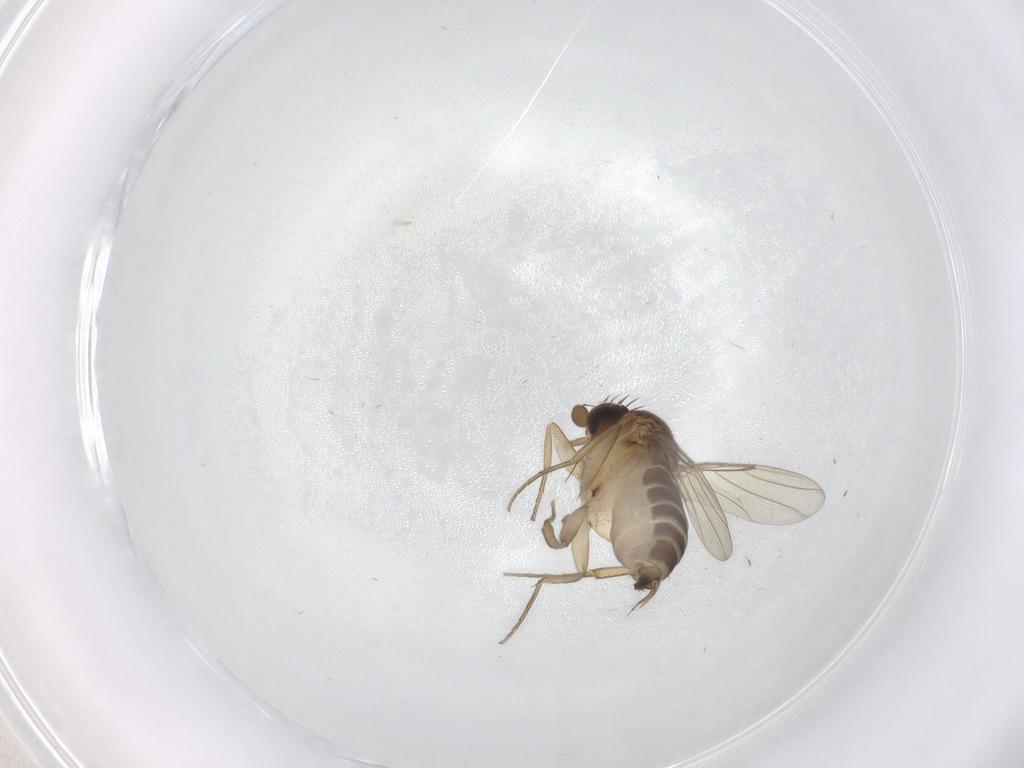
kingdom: Animalia
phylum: Arthropoda
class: Insecta
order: Diptera
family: Phoridae
